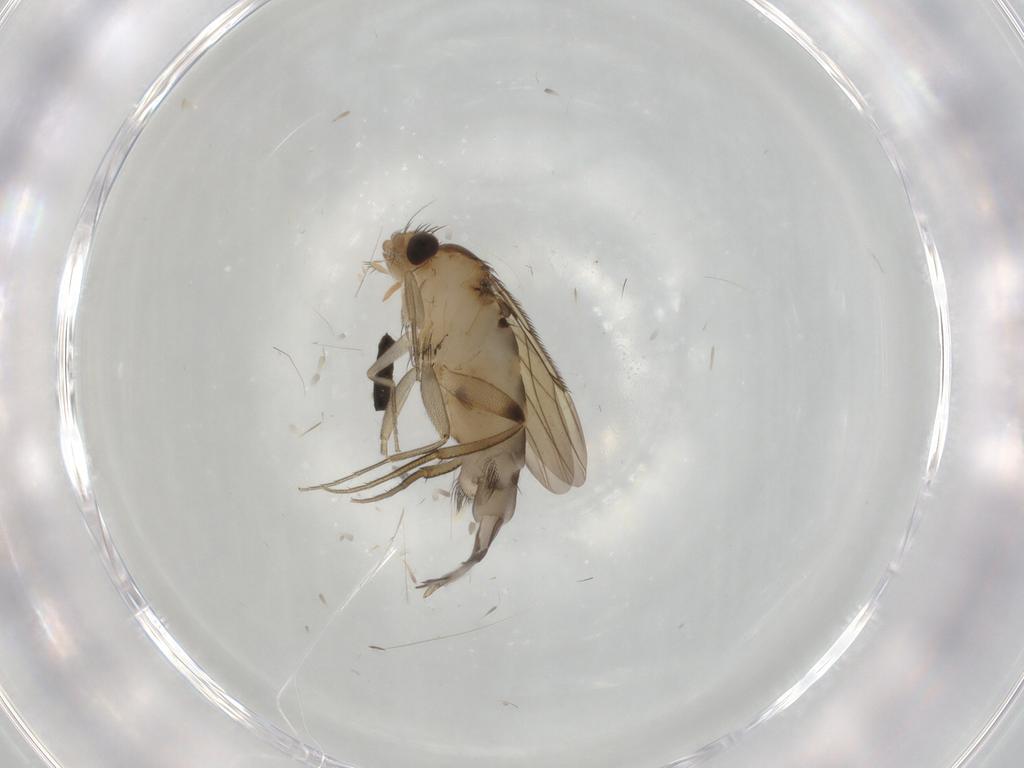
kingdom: Animalia
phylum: Arthropoda
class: Insecta
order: Diptera
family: Phoridae
